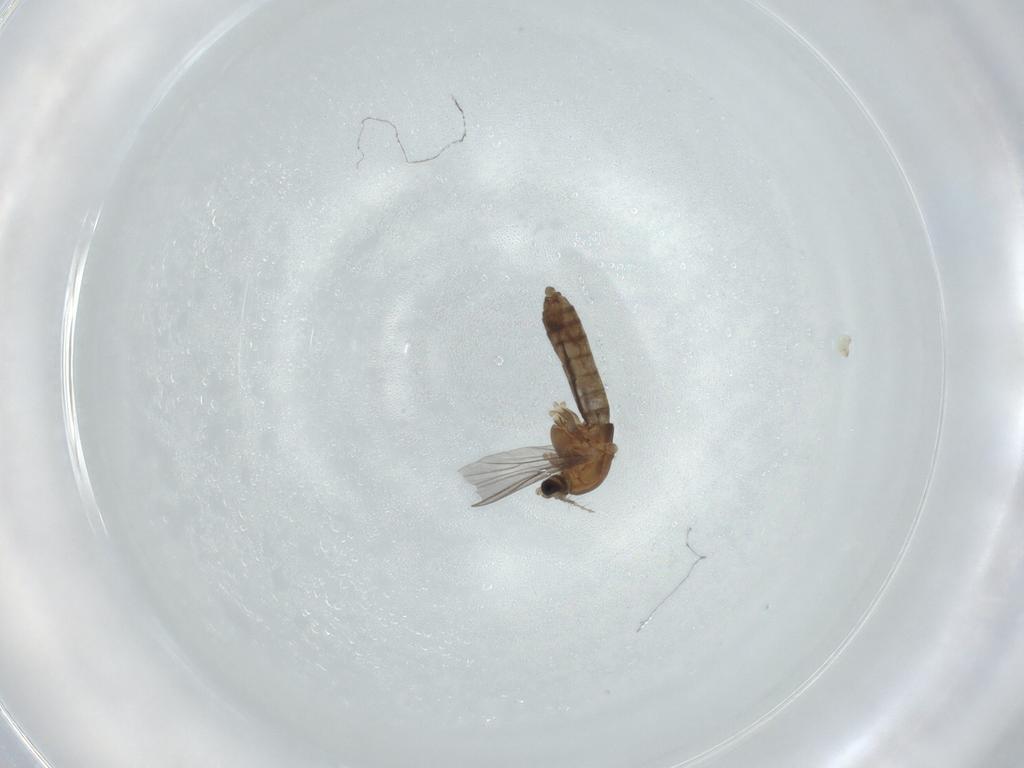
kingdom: Animalia
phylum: Arthropoda
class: Insecta
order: Diptera
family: Chironomidae
